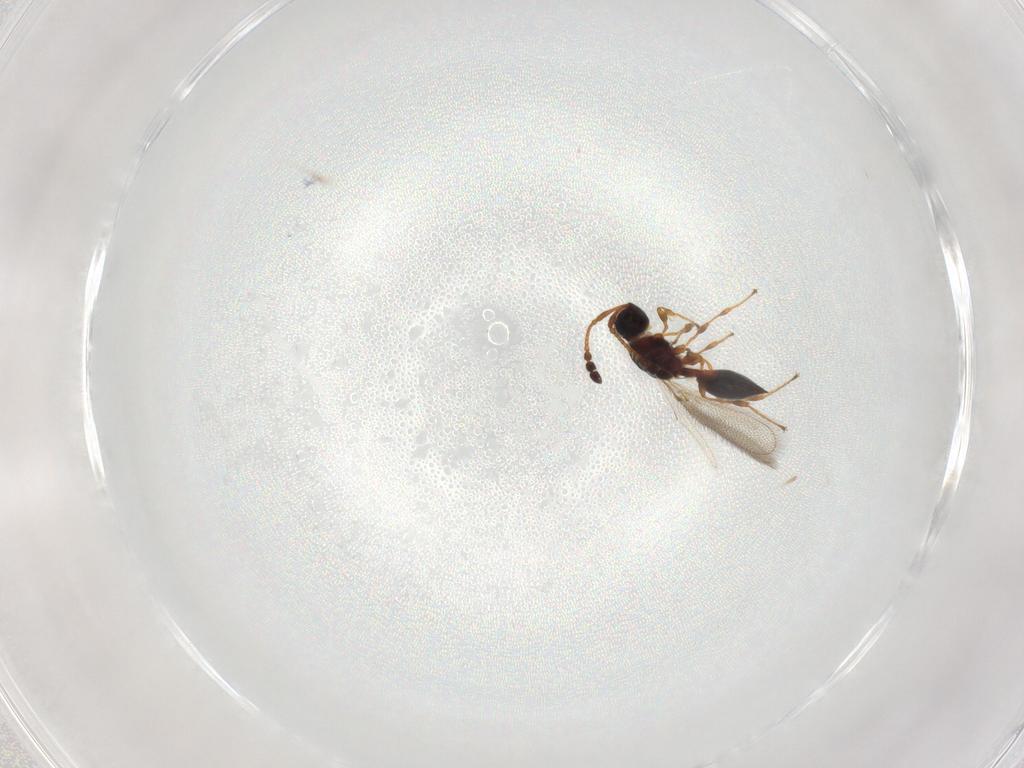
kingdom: Animalia
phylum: Arthropoda
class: Insecta
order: Hymenoptera
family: Diapriidae
